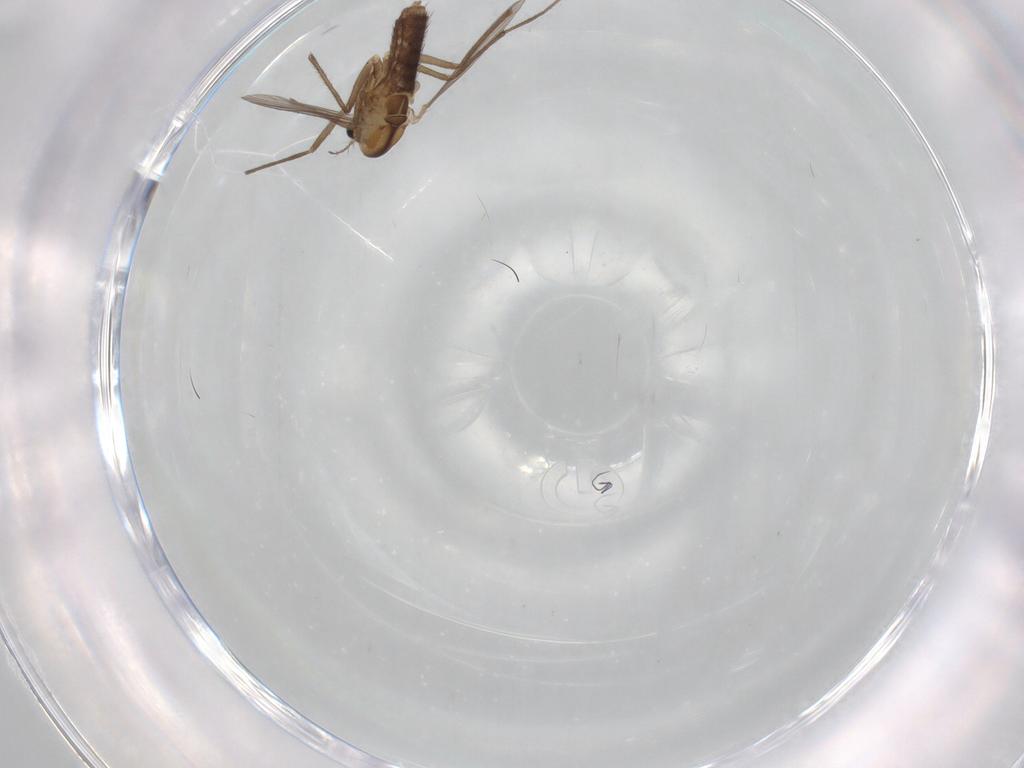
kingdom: Animalia
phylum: Arthropoda
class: Insecta
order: Diptera
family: Chironomidae
